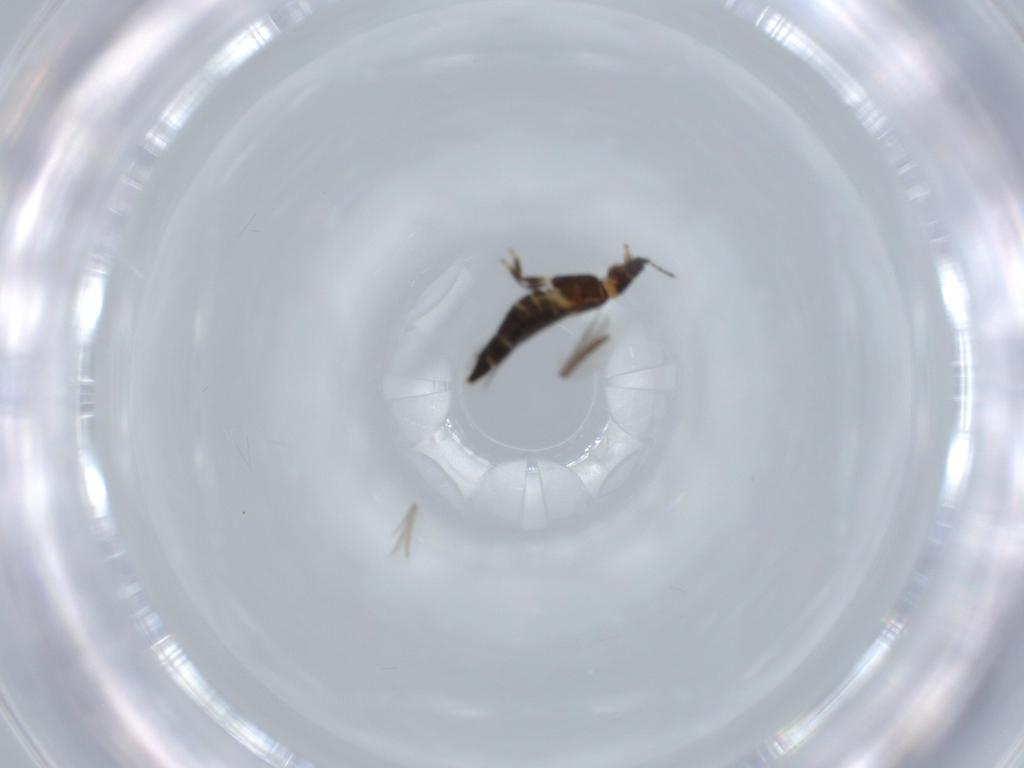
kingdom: Animalia
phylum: Arthropoda
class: Insecta
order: Thysanoptera
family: Thripidae
